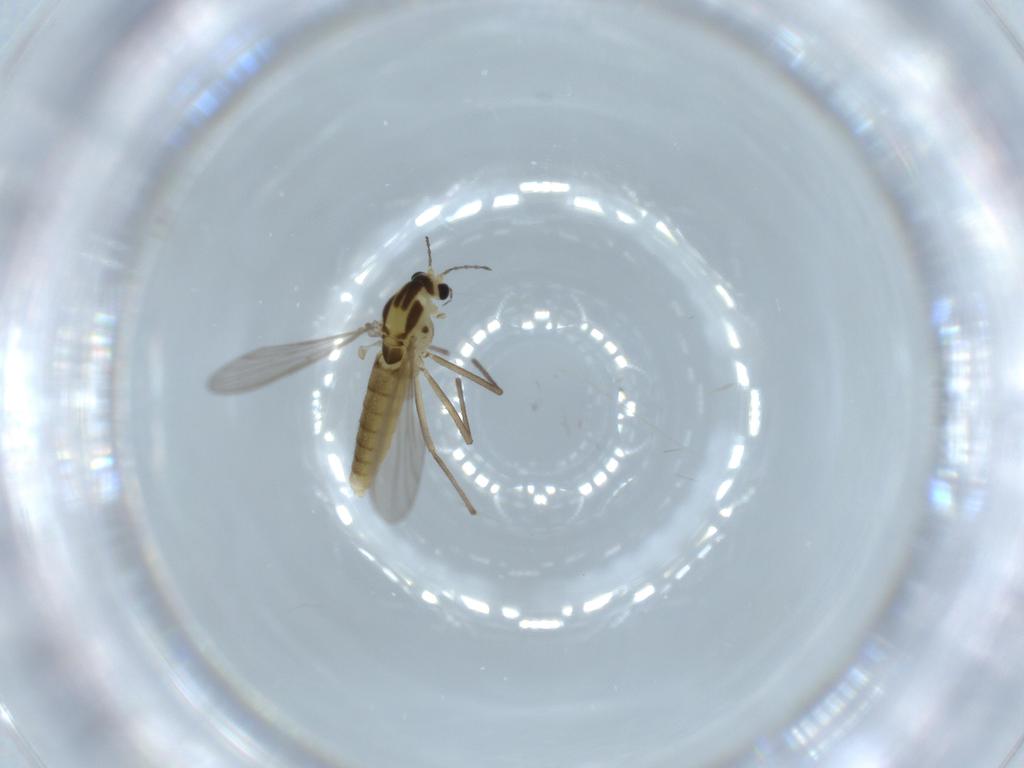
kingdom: Animalia
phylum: Arthropoda
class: Insecta
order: Diptera
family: Chironomidae
